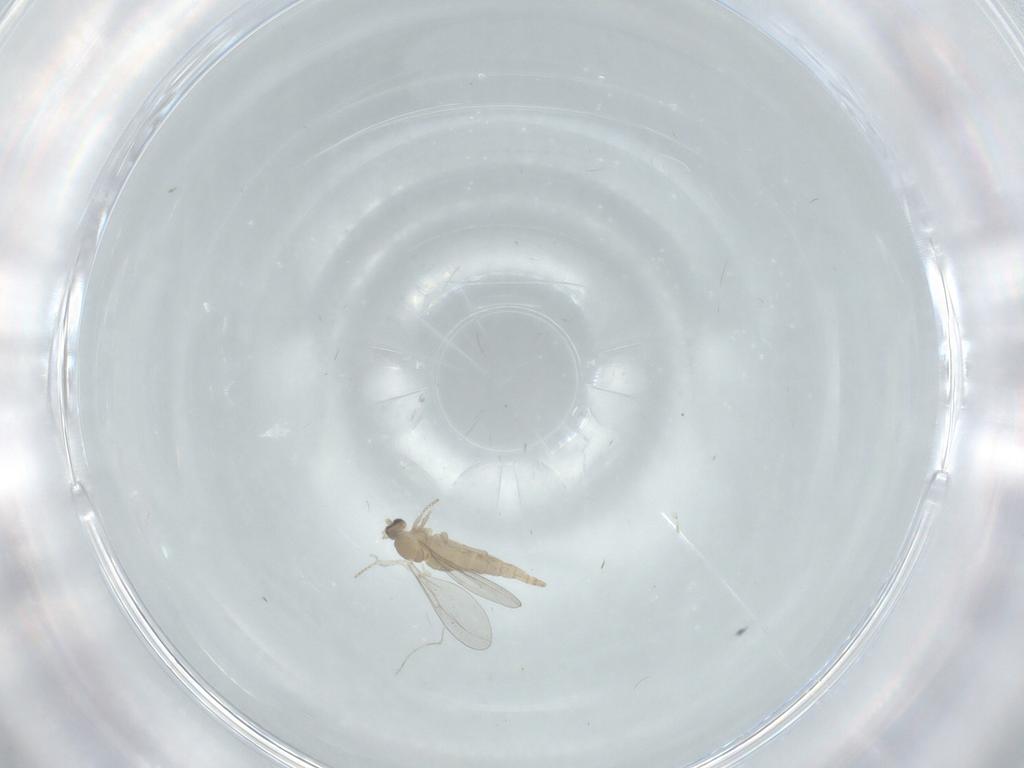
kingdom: Animalia
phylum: Arthropoda
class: Insecta
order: Diptera
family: Cecidomyiidae
